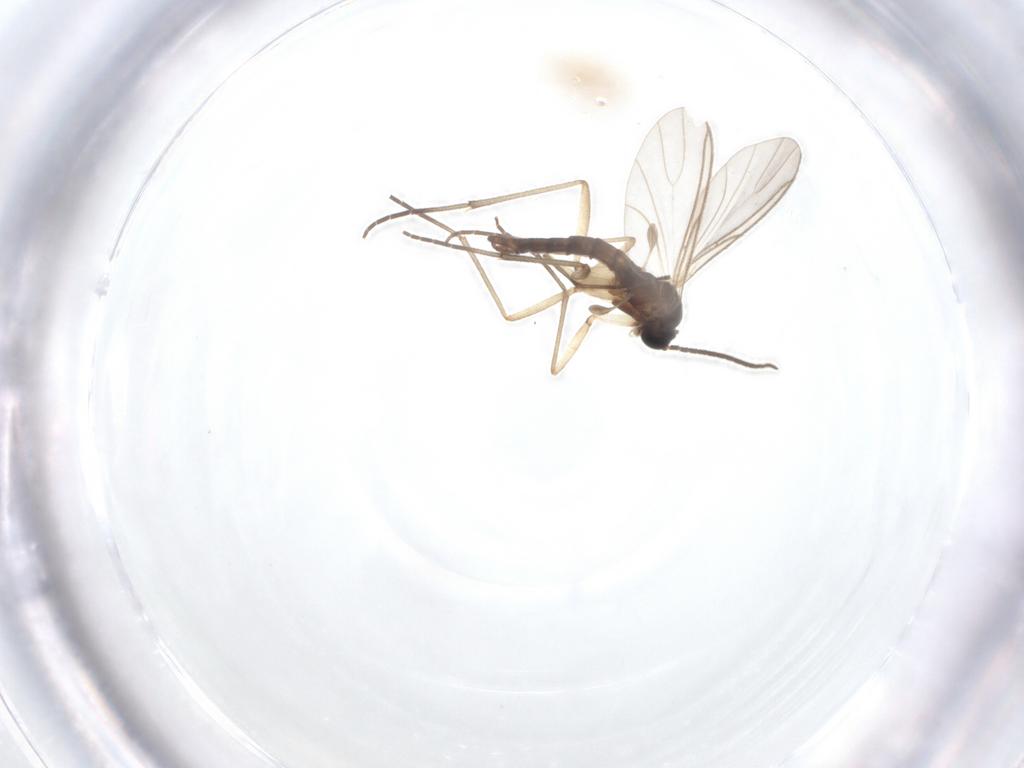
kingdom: Animalia
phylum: Arthropoda
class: Insecta
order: Diptera
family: Sciaridae
